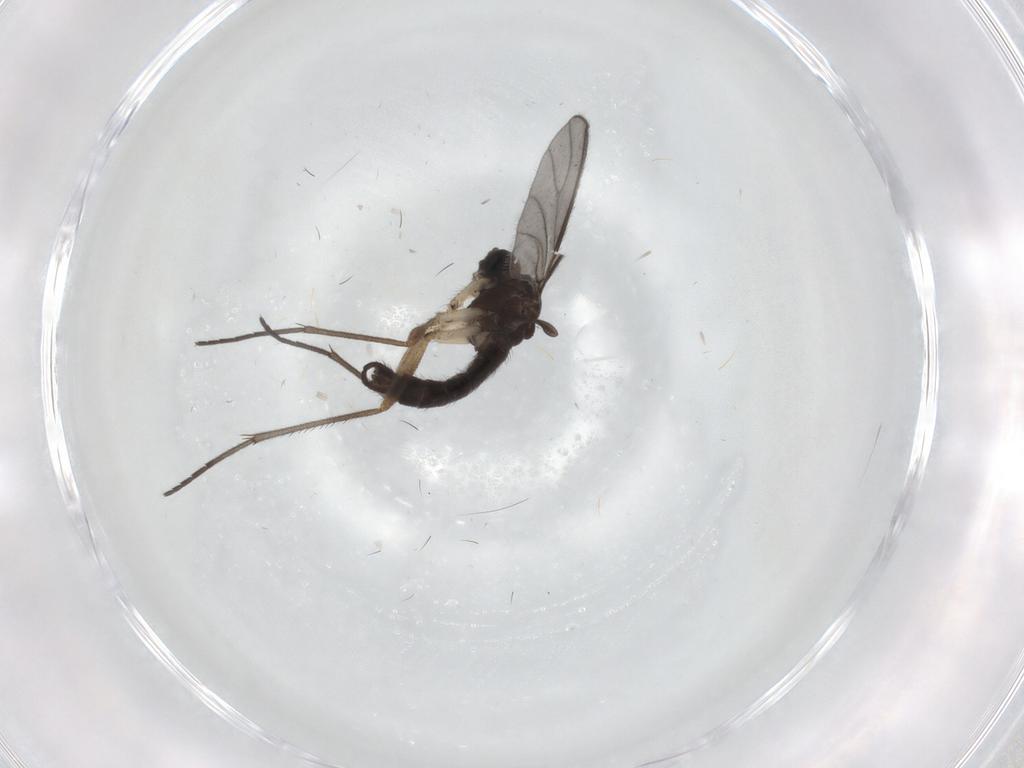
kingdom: Animalia
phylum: Arthropoda
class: Insecta
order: Diptera
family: Sciaridae
